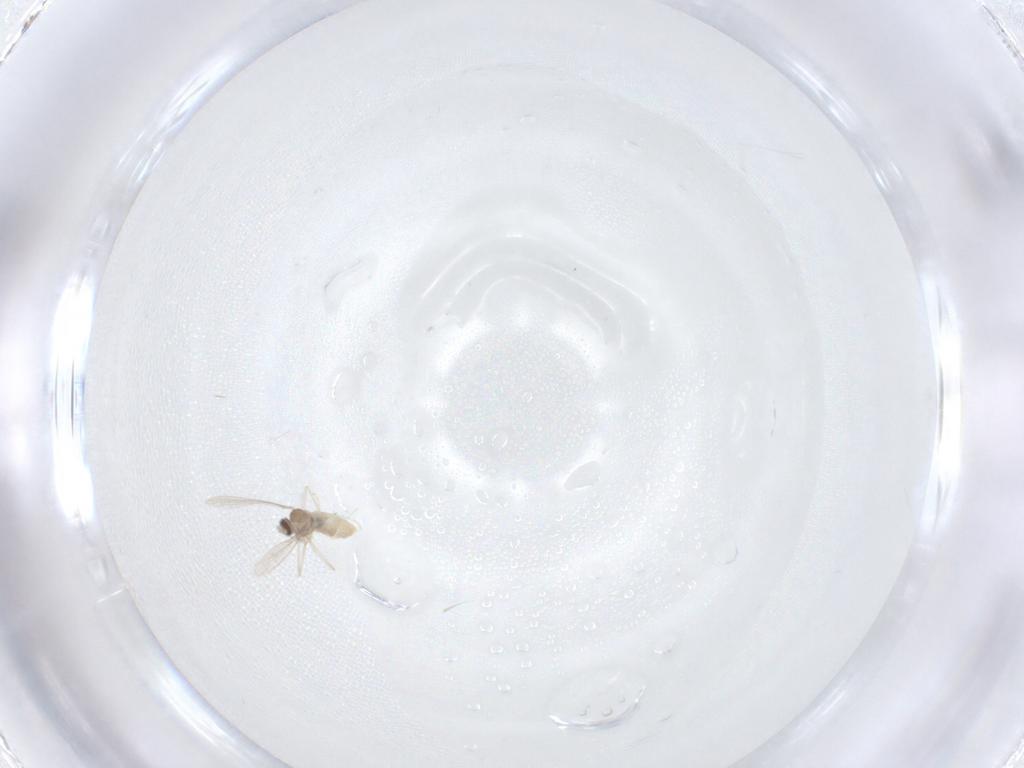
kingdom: Animalia
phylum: Arthropoda
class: Insecta
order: Diptera
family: Cecidomyiidae
